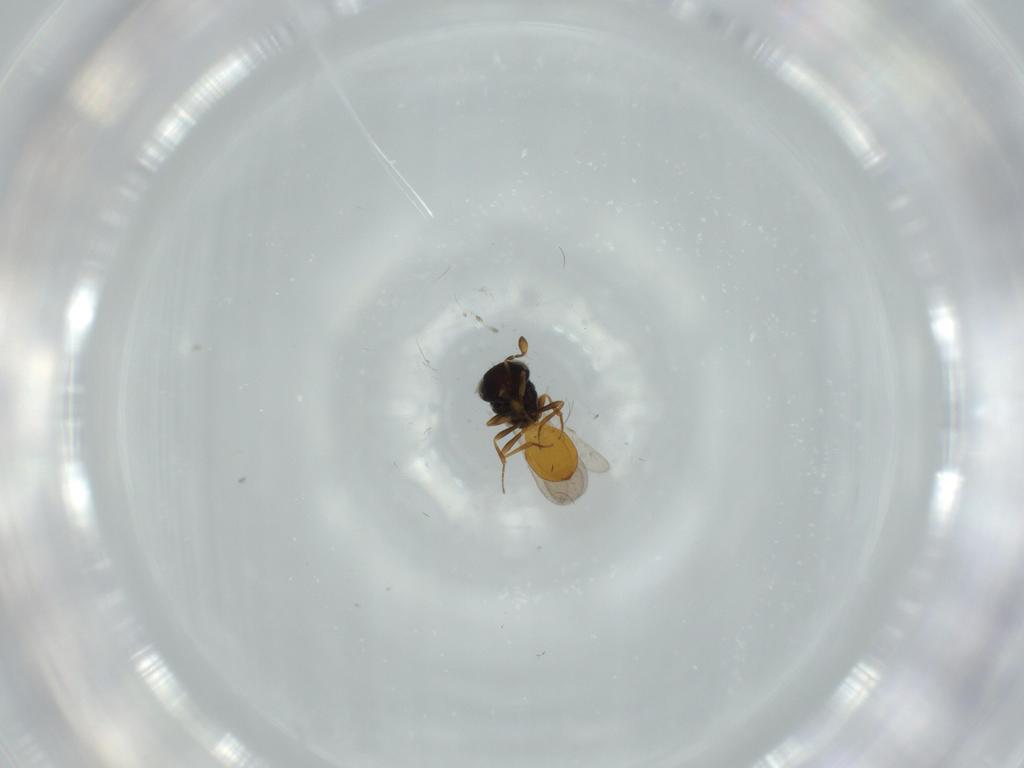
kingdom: Animalia
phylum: Arthropoda
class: Insecta
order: Hymenoptera
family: Scelionidae
